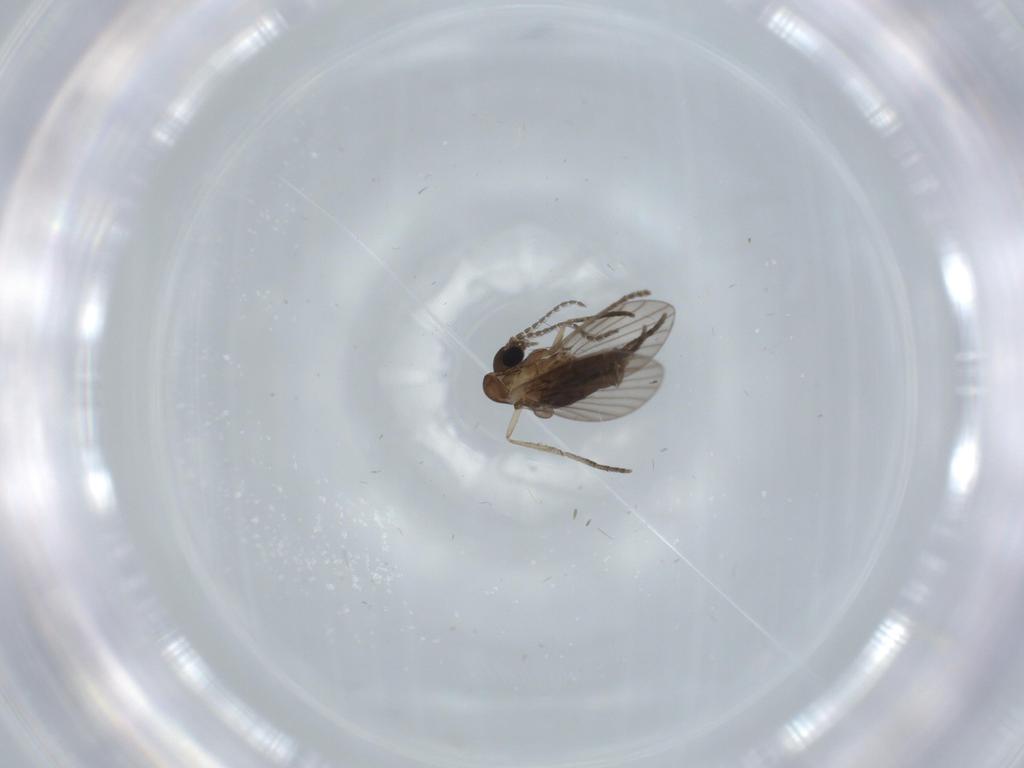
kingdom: Animalia
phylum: Arthropoda
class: Insecta
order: Diptera
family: Psychodidae
